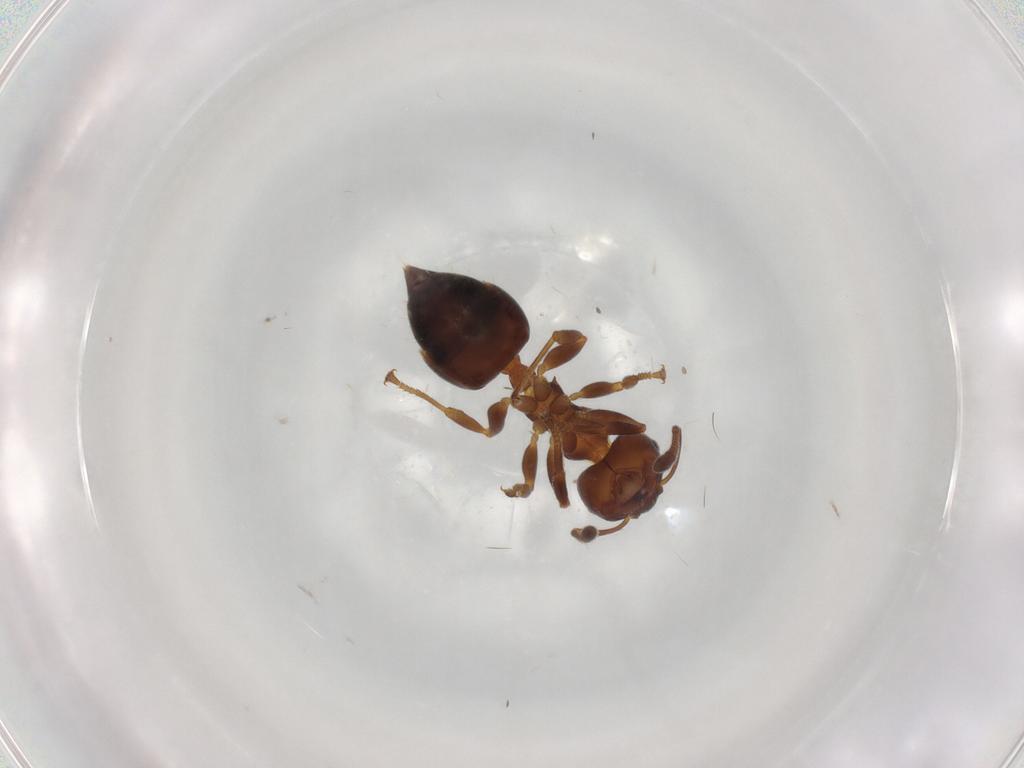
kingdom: Animalia
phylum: Arthropoda
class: Insecta
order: Hymenoptera
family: Formicidae
